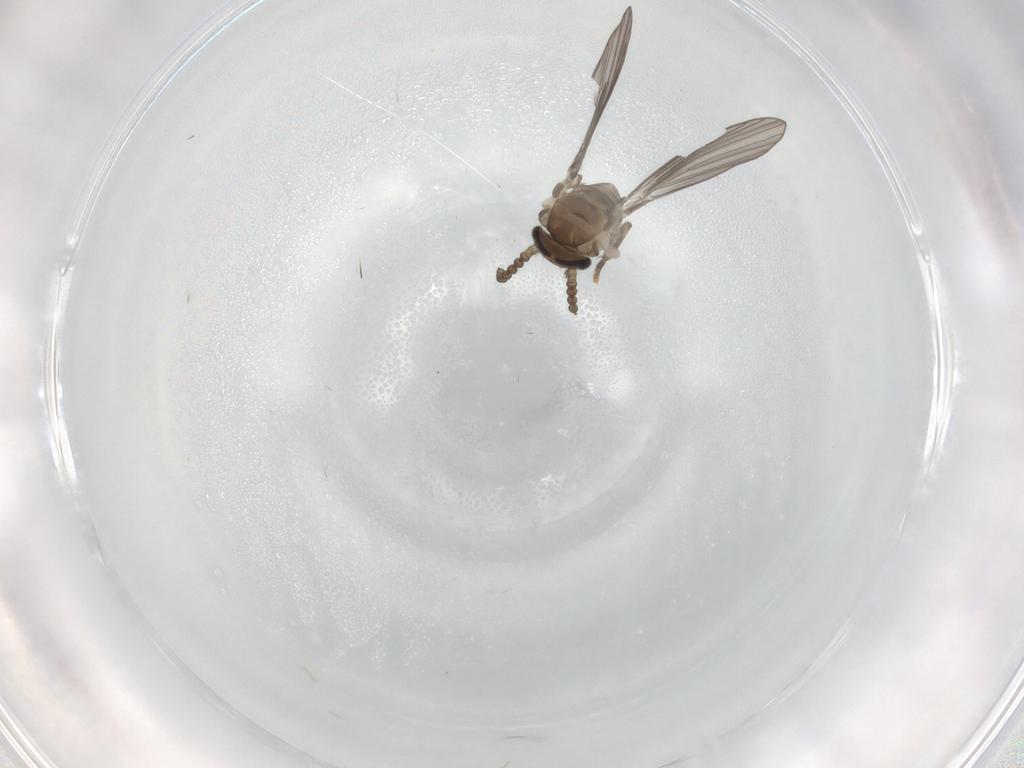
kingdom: Animalia
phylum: Arthropoda
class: Insecta
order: Diptera
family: Psychodidae
